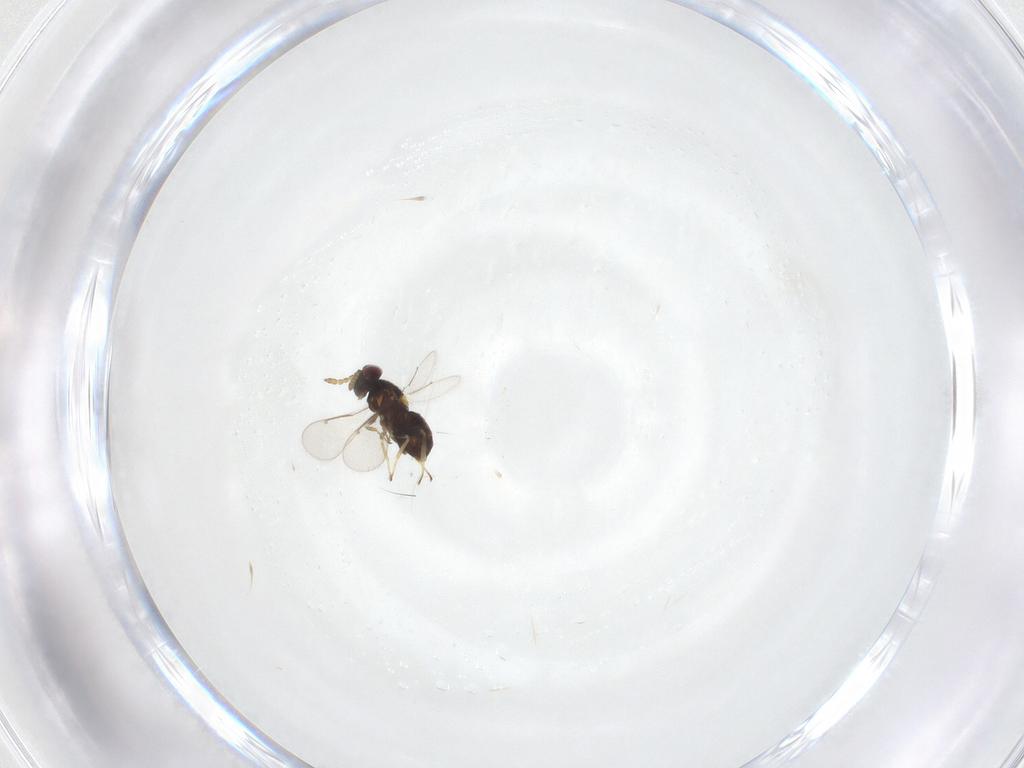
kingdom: Animalia
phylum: Arthropoda
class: Insecta
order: Hymenoptera
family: Aphelinidae
